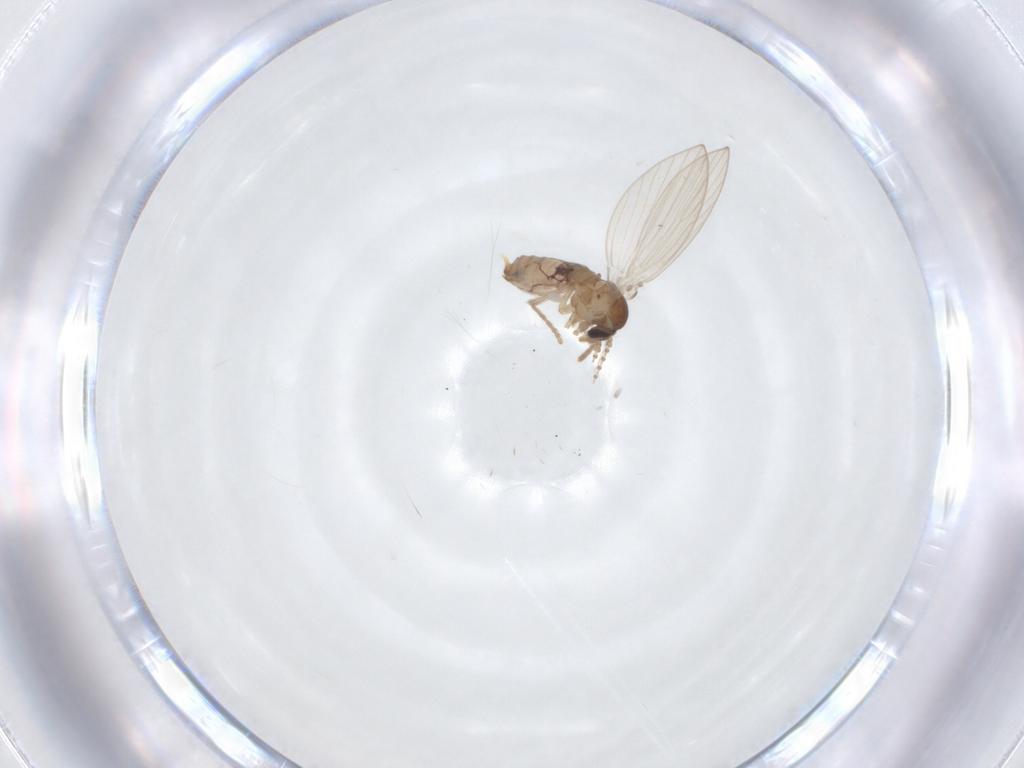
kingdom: Animalia
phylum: Arthropoda
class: Insecta
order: Diptera
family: Psychodidae
